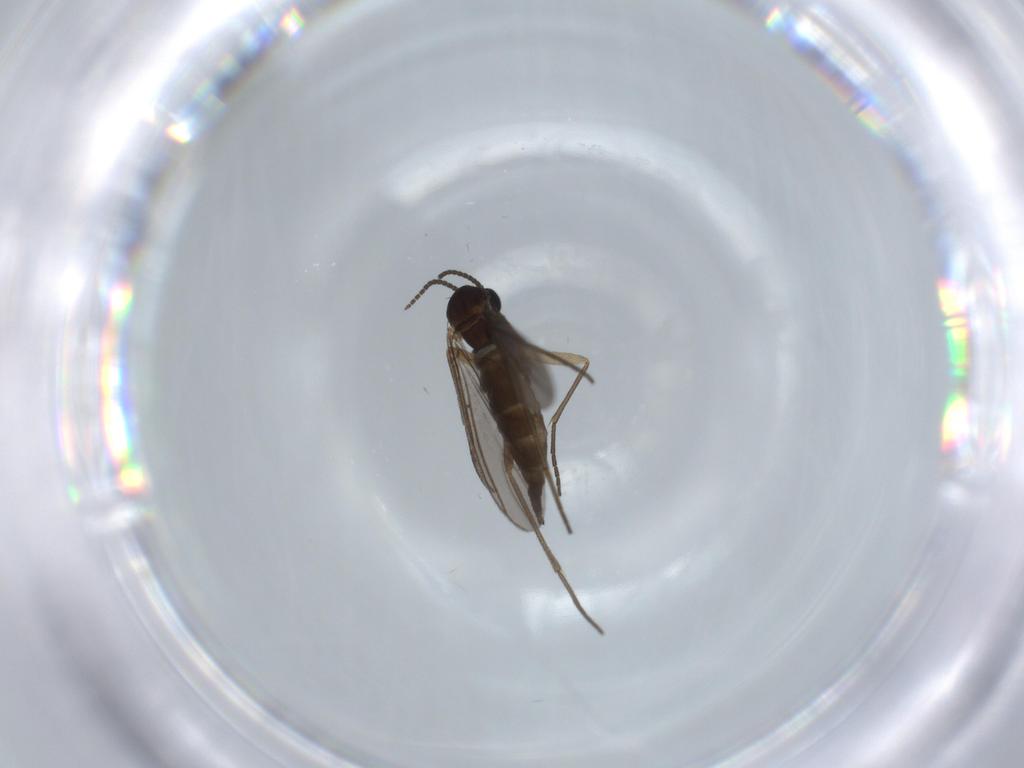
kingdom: Animalia
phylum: Arthropoda
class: Insecta
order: Diptera
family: Sciaridae
